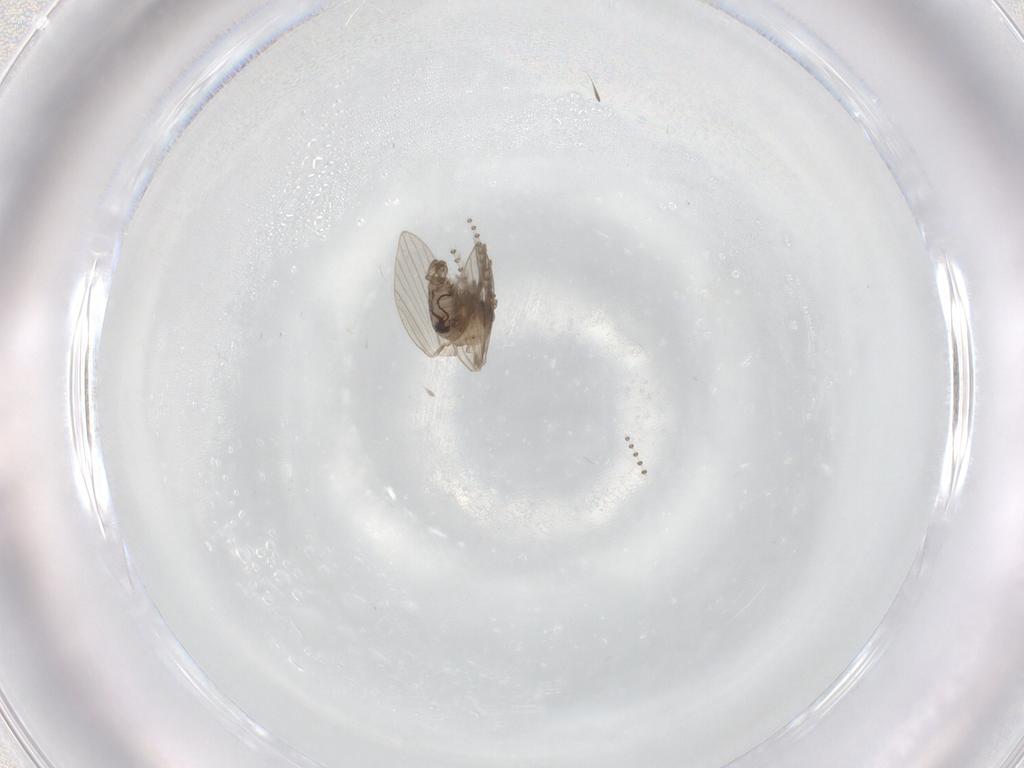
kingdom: Animalia
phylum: Arthropoda
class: Insecta
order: Diptera
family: Psychodidae
